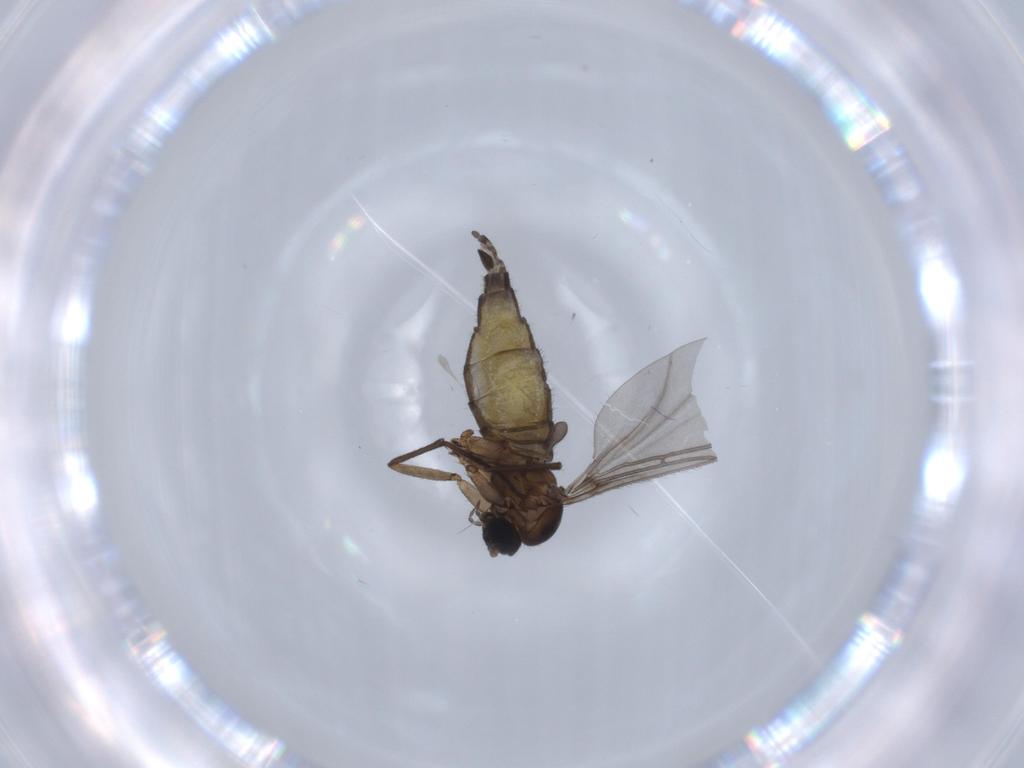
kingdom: Animalia
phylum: Arthropoda
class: Insecta
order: Diptera
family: Sciaridae
